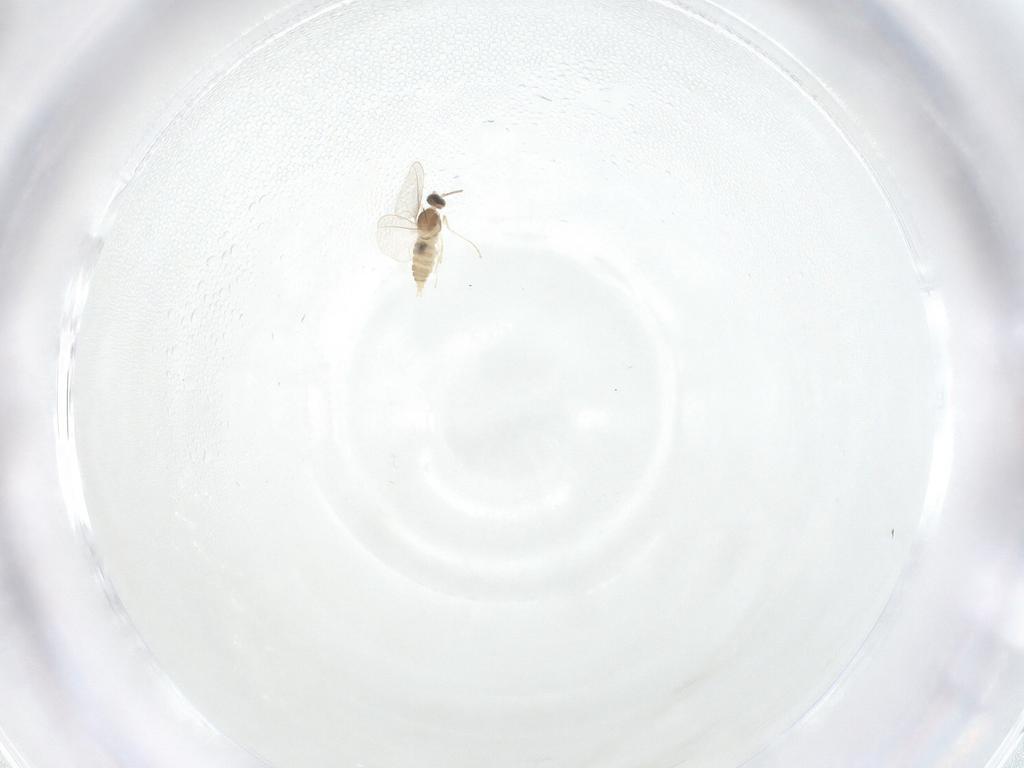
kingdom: Animalia
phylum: Arthropoda
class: Insecta
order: Diptera
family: Cecidomyiidae
